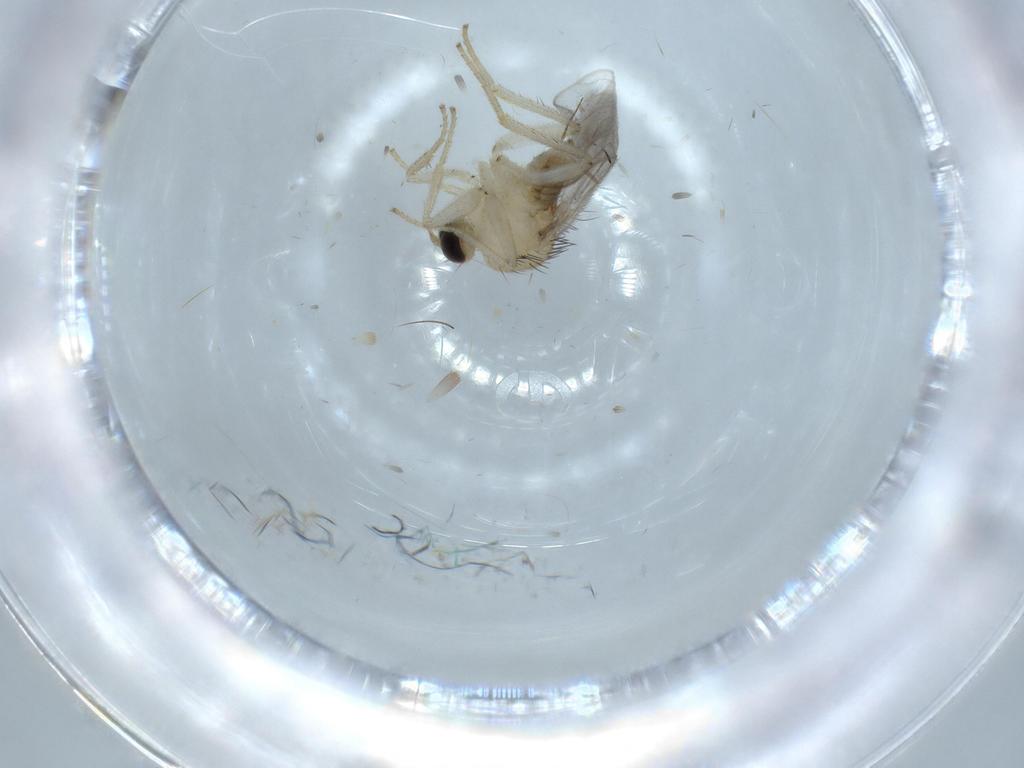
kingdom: Animalia
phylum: Arthropoda
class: Insecta
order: Diptera
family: Hybotidae
